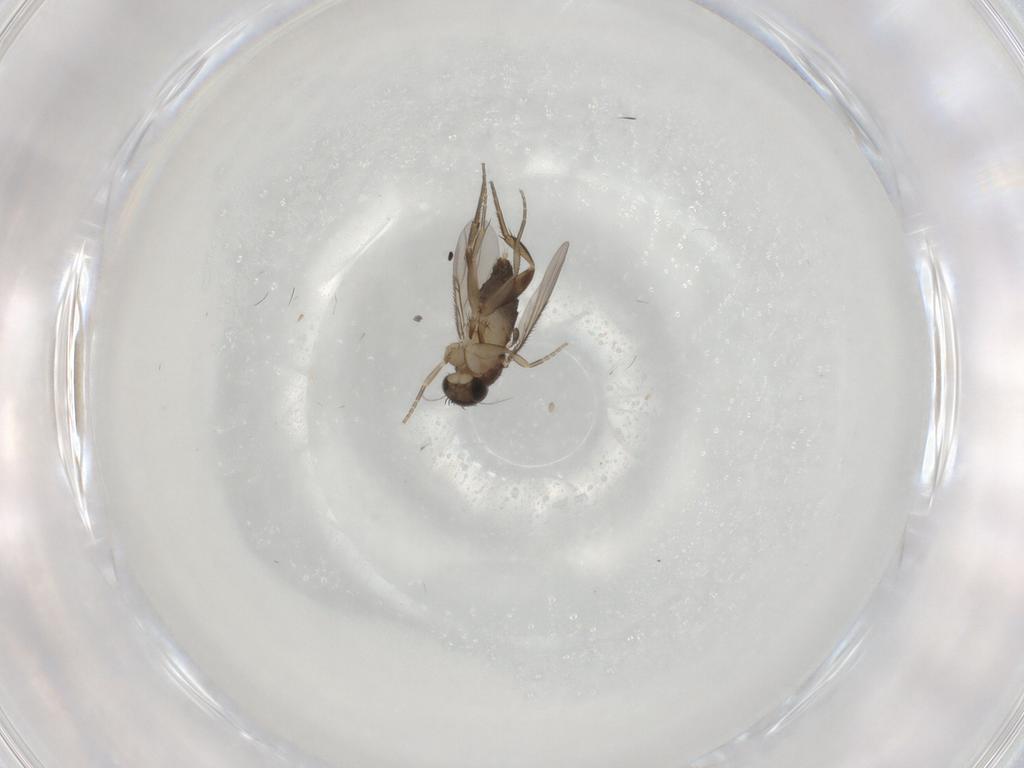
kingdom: Animalia
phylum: Arthropoda
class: Insecta
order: Diptera
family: Phoridae
